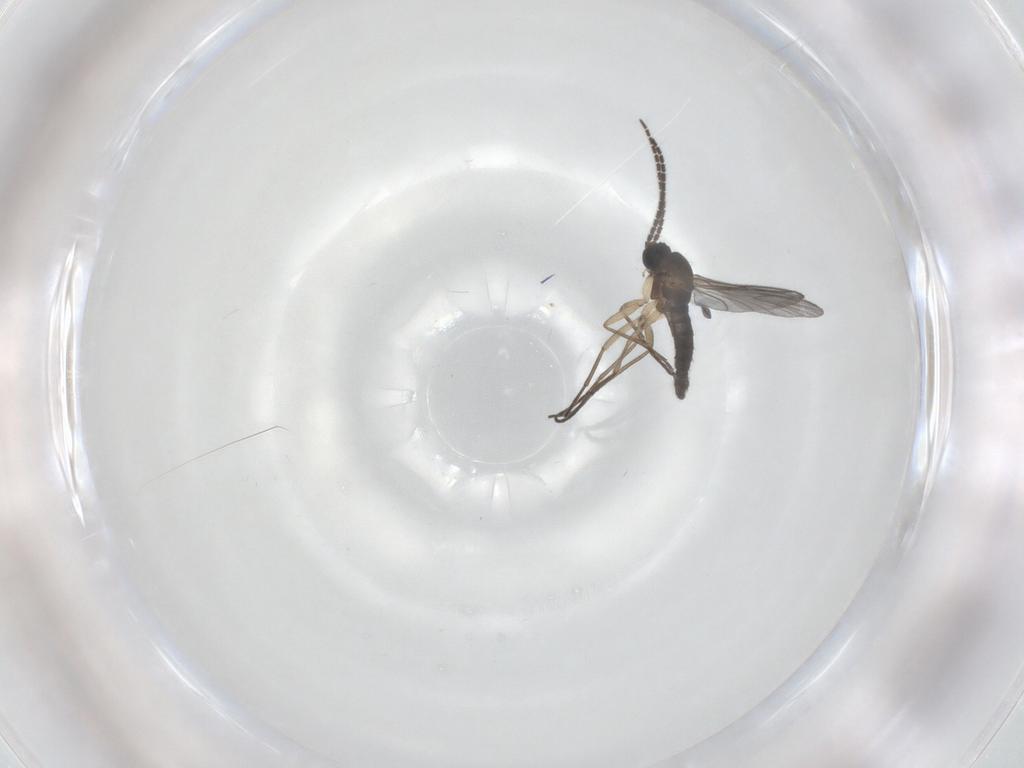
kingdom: Animalia
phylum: Arthropoda
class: Insecta
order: Diptera
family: Sciaridae
